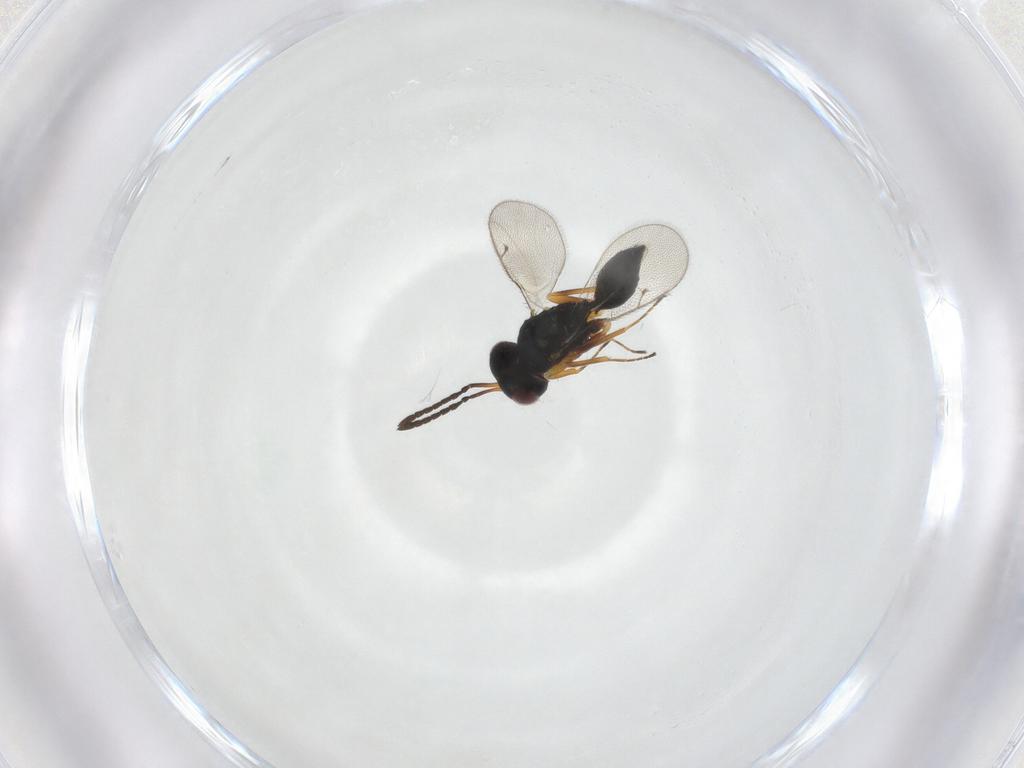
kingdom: Animalia
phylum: Arthropoda
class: Insecta
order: Hymenoptera
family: Pteromalidae
